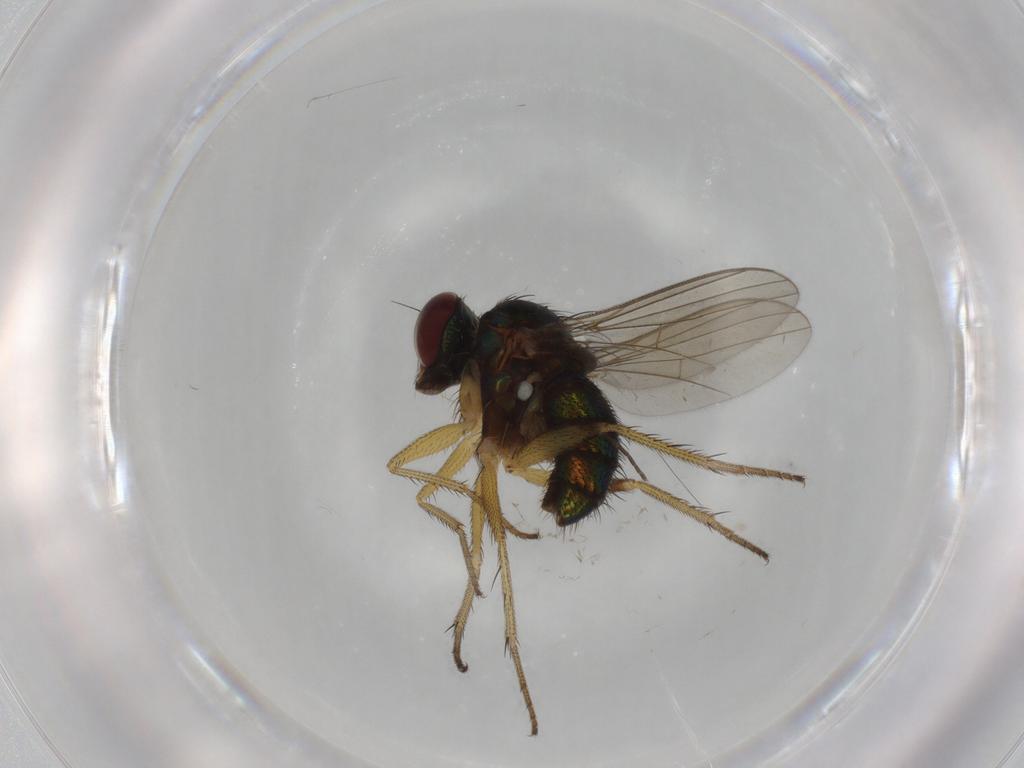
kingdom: Animalia
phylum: Arthropoda
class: Insecta
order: Diptera
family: Dolichopodidae
